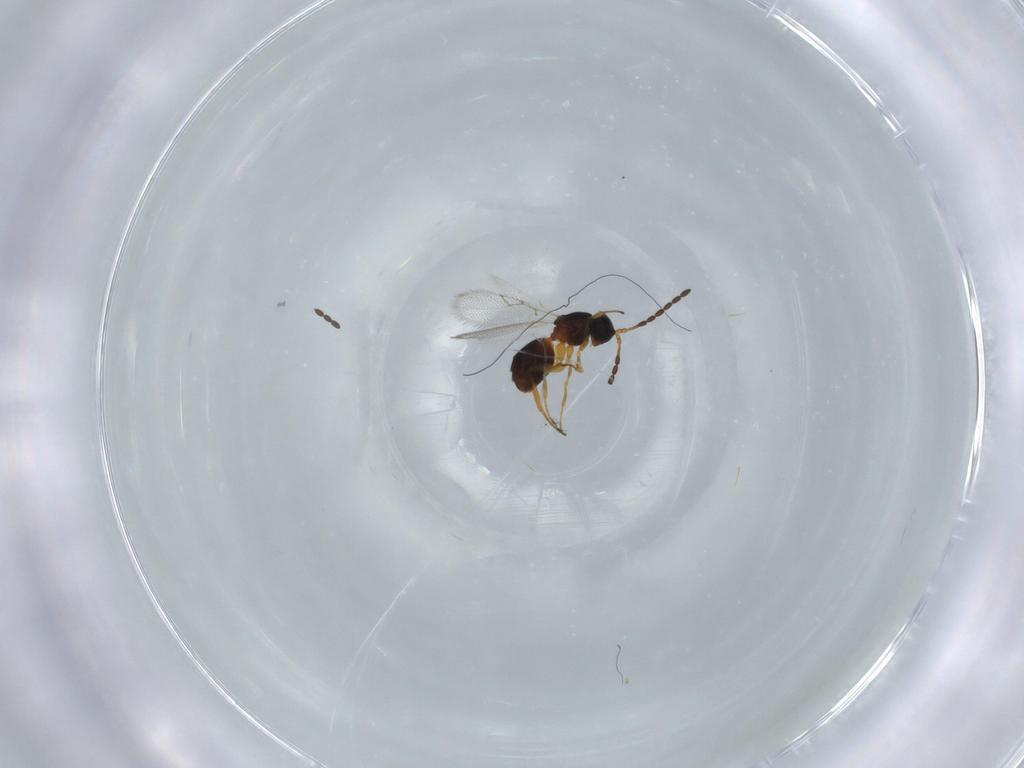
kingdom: Animalia
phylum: Arthropoda
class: Insecta
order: Hymenoptera
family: Figitidae
